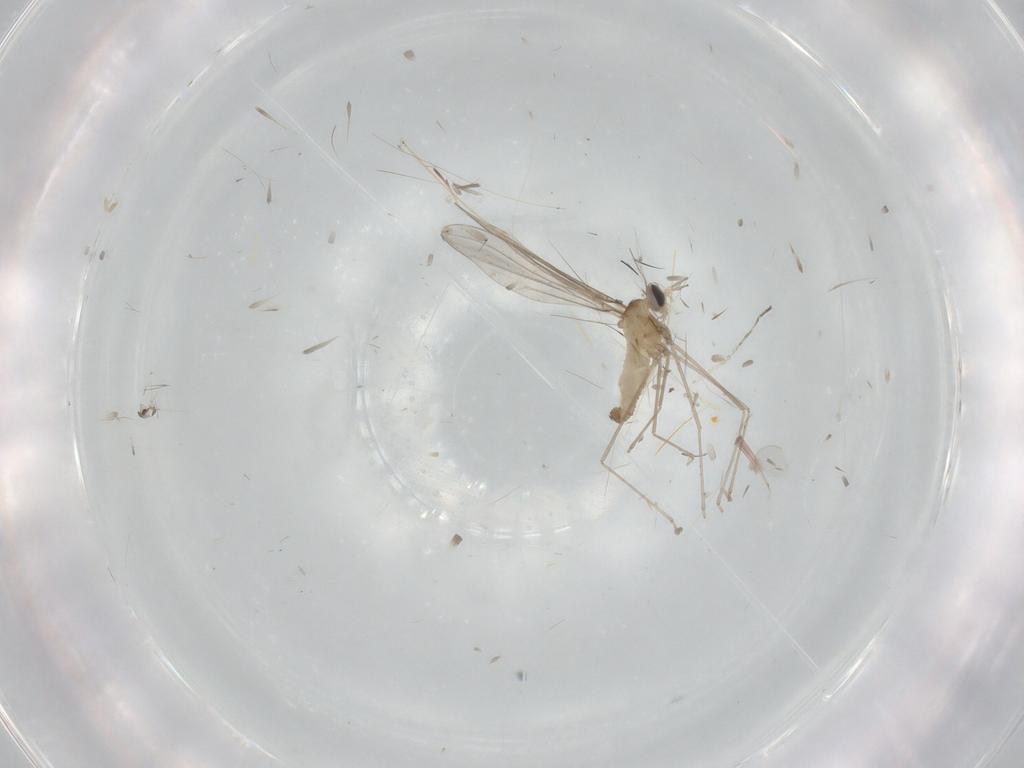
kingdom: Animalia
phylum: Arthropoda
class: Insecta
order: Diptera
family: Cecidomyiidae
